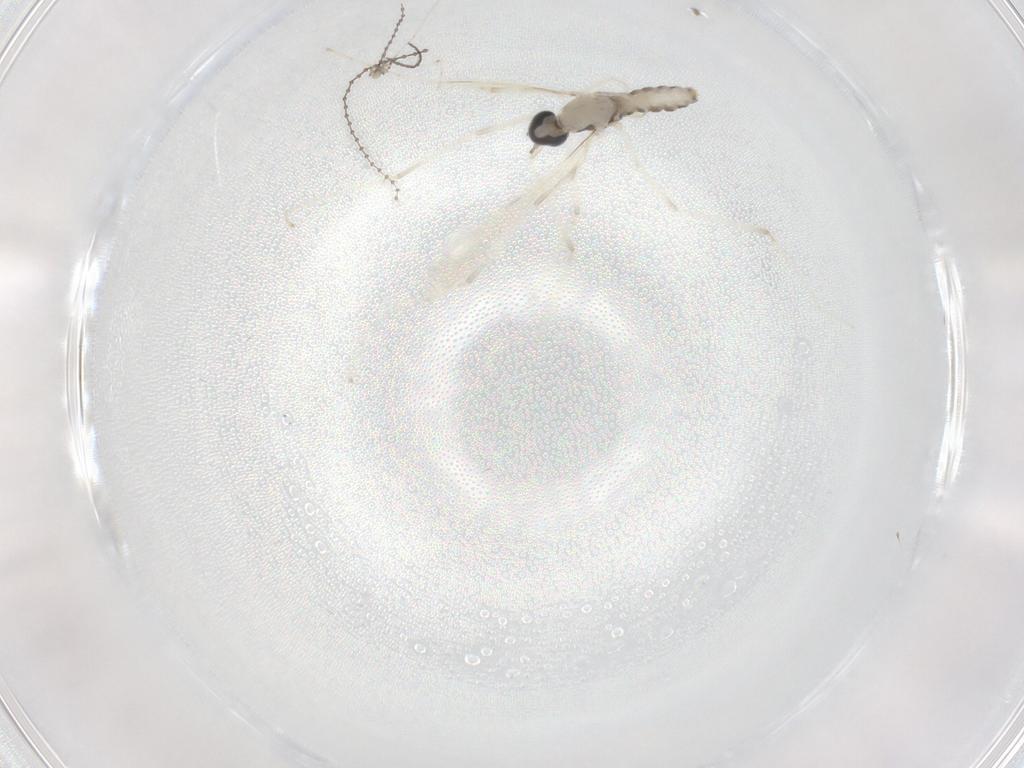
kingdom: Animalia
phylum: Arthropoda
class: Insecta
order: Diptera
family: Cecidomyiidae
